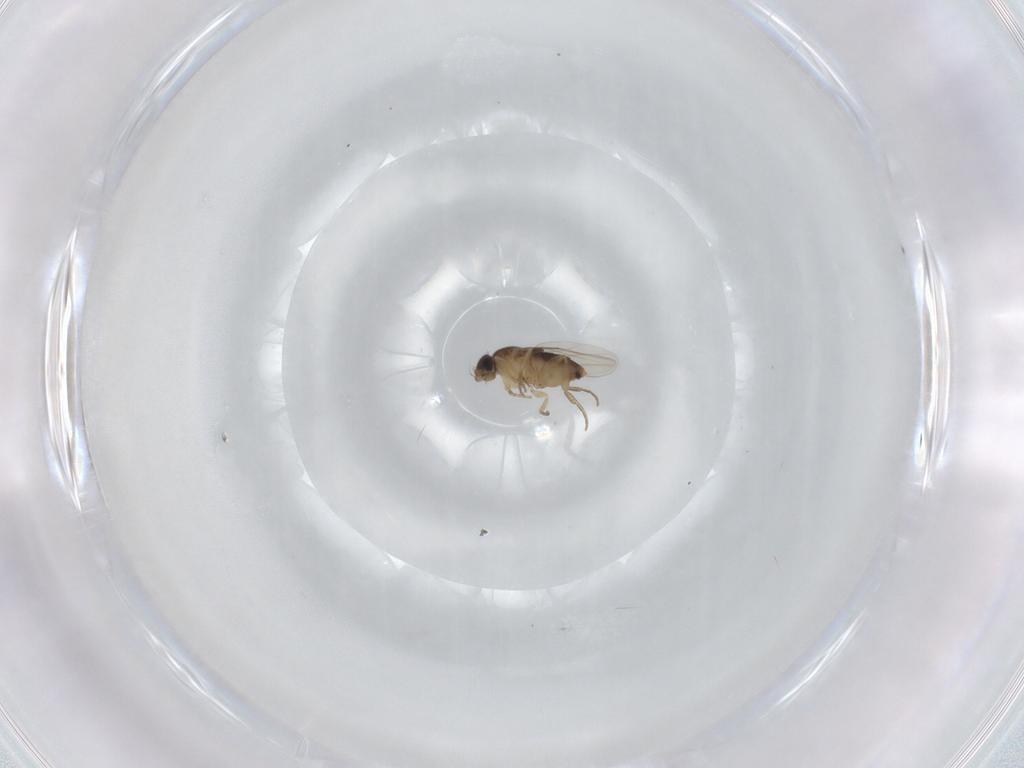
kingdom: Animalia
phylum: Arthropoda
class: Insecta
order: Diptera
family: Phoridae
